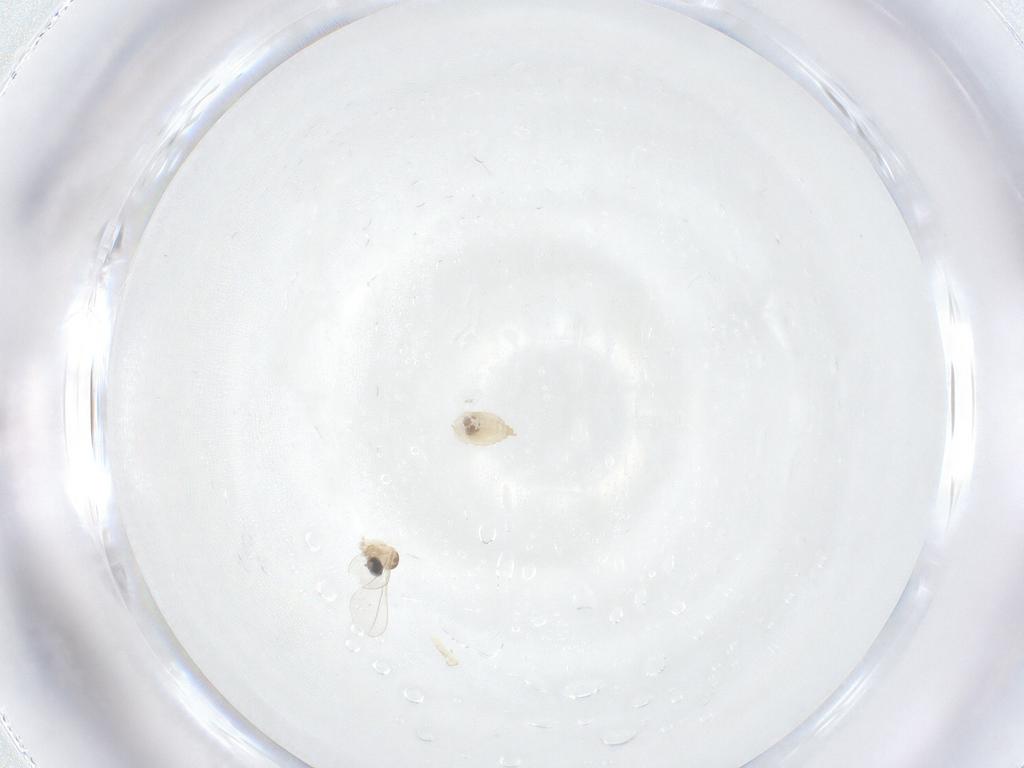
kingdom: Animalia
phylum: Arthropoda
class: Insecta
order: Diptera
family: Cecidomyiidae
